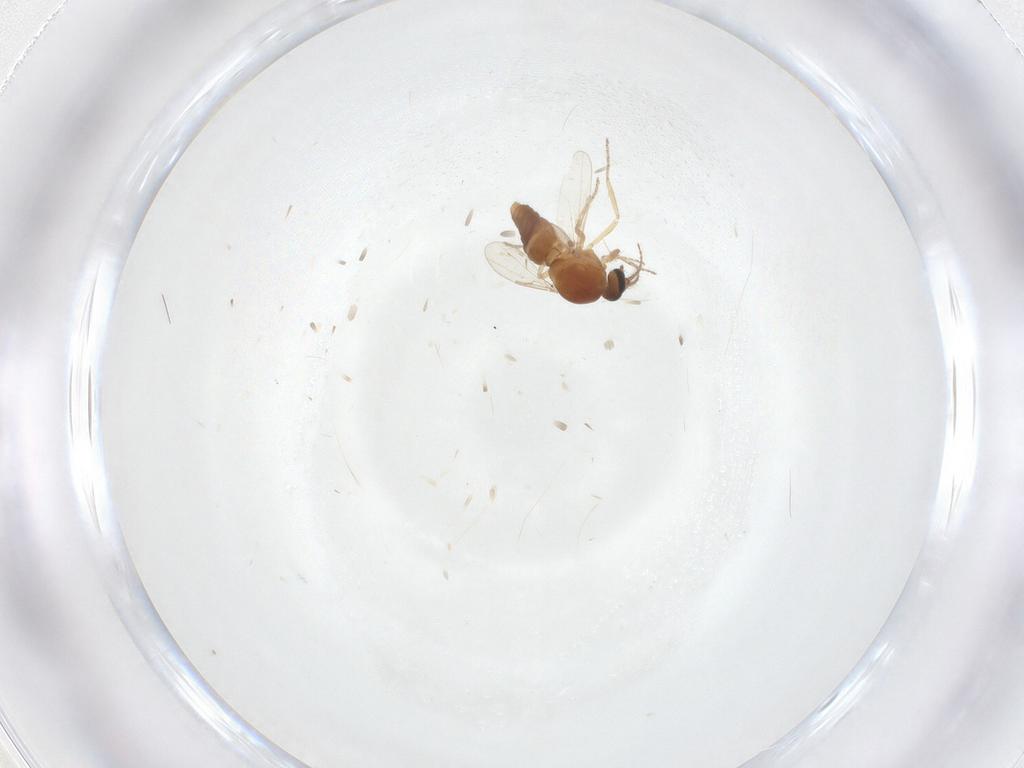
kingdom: Animalia
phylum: Arthropoda
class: Insecta
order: Diptera
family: Ceratopogonidae
